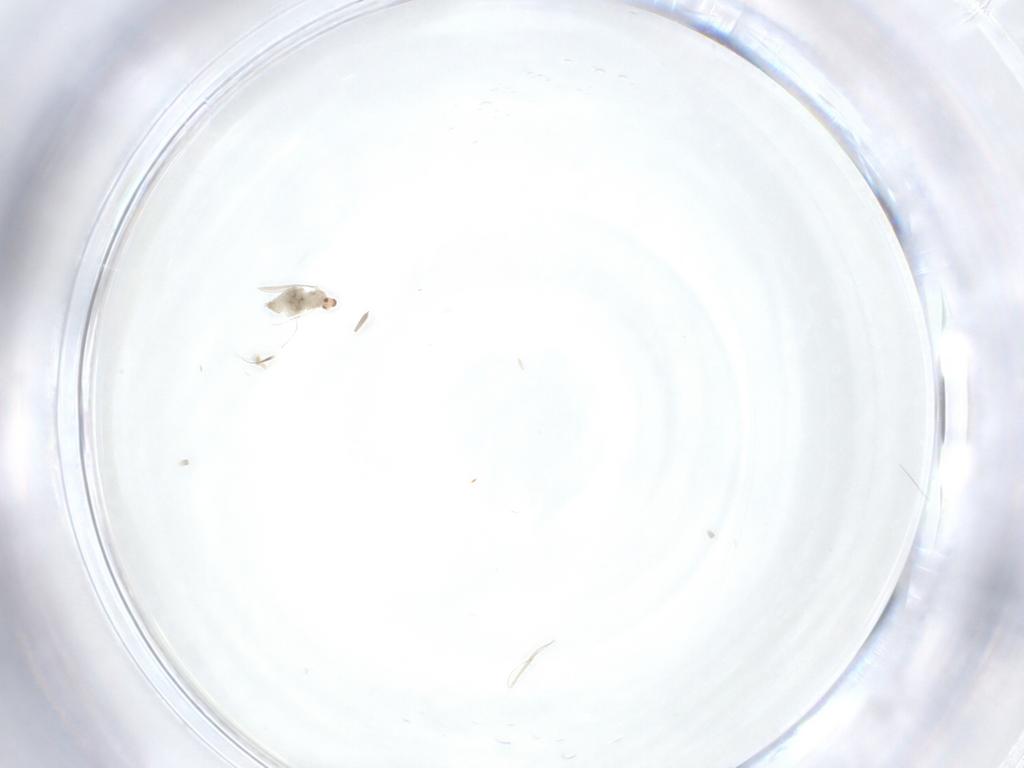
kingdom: Animalia
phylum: Arthropoda
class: Insecta
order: Diptera
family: Cecidomyiidae
